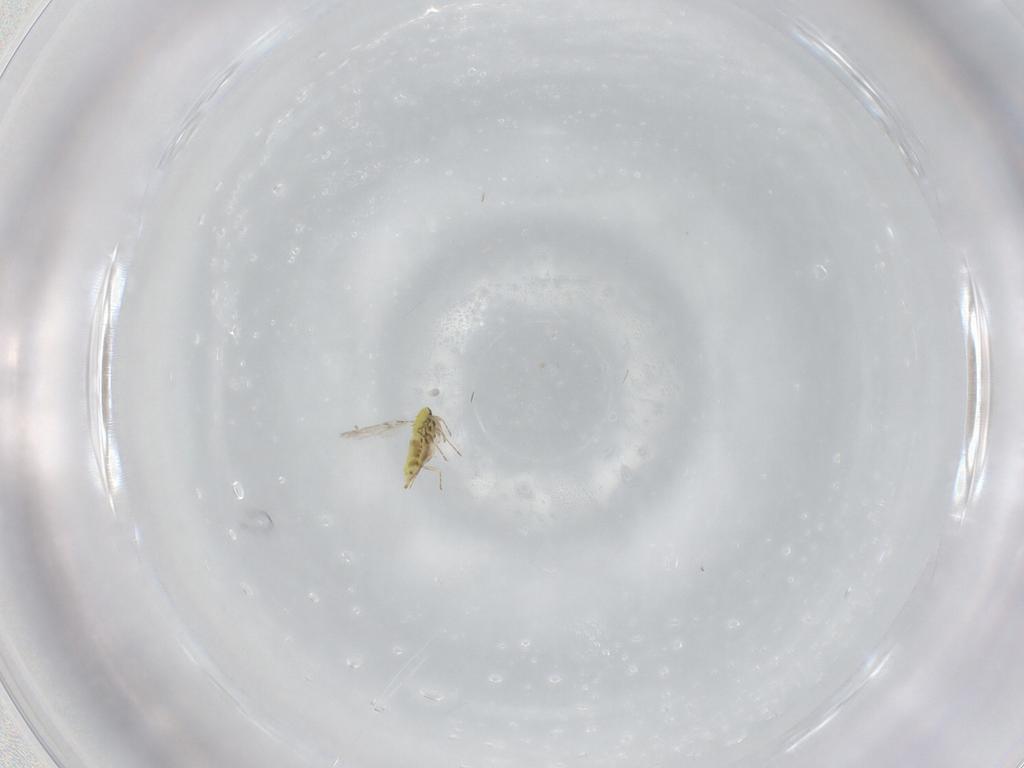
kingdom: Animalia
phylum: Arthropoda
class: Insecta
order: Hymenoptera
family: Trichogrammatidae
